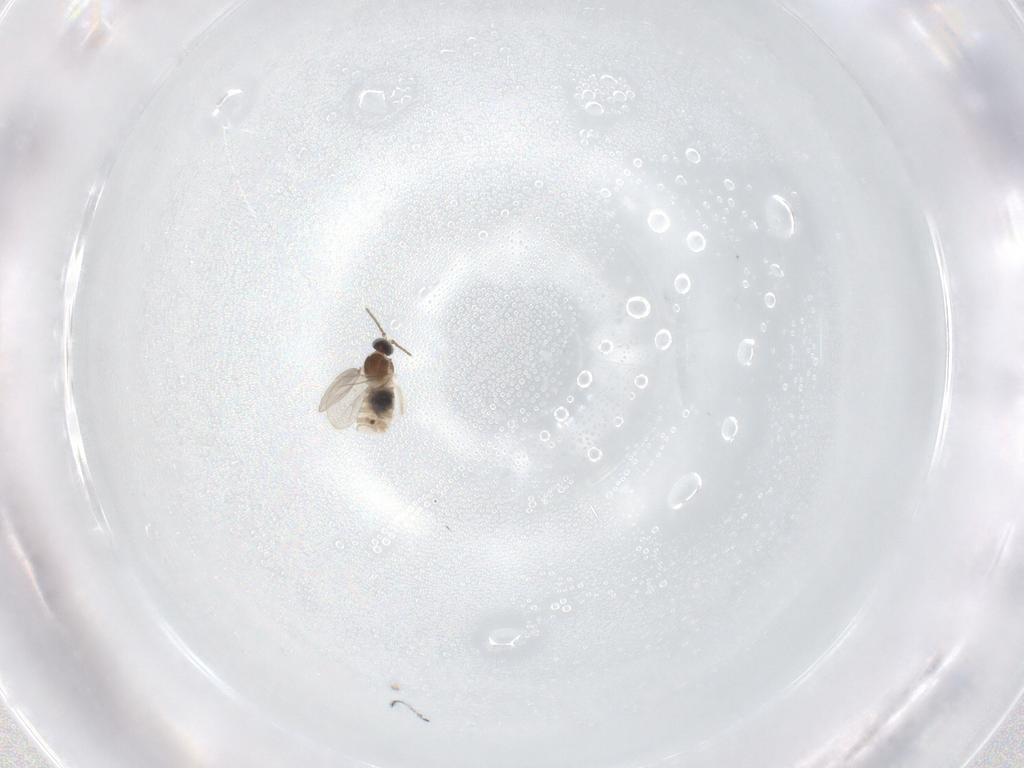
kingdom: Animalia
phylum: Arthropoda
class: Insecta
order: Diptera
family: Cecidomyiidae
